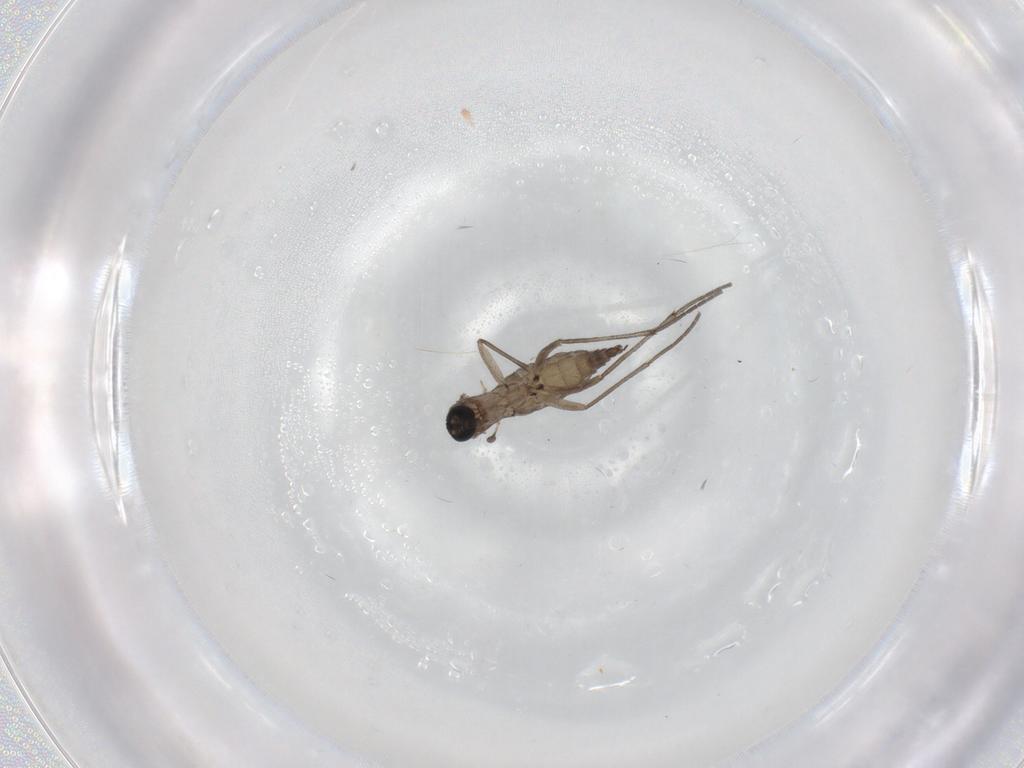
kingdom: Animalia
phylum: Arthropoda
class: Insecta
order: Diptera
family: Sciaridae
